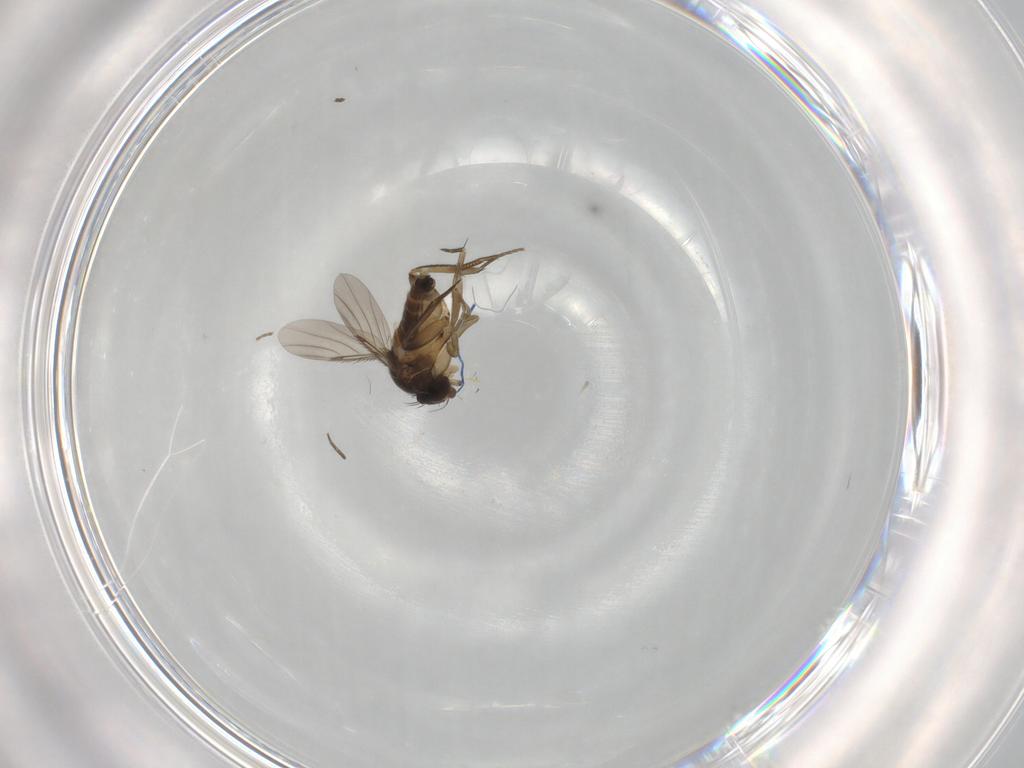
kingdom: Animalia
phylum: Arthropoda
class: Insecta
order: Diptera
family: Phoridae
